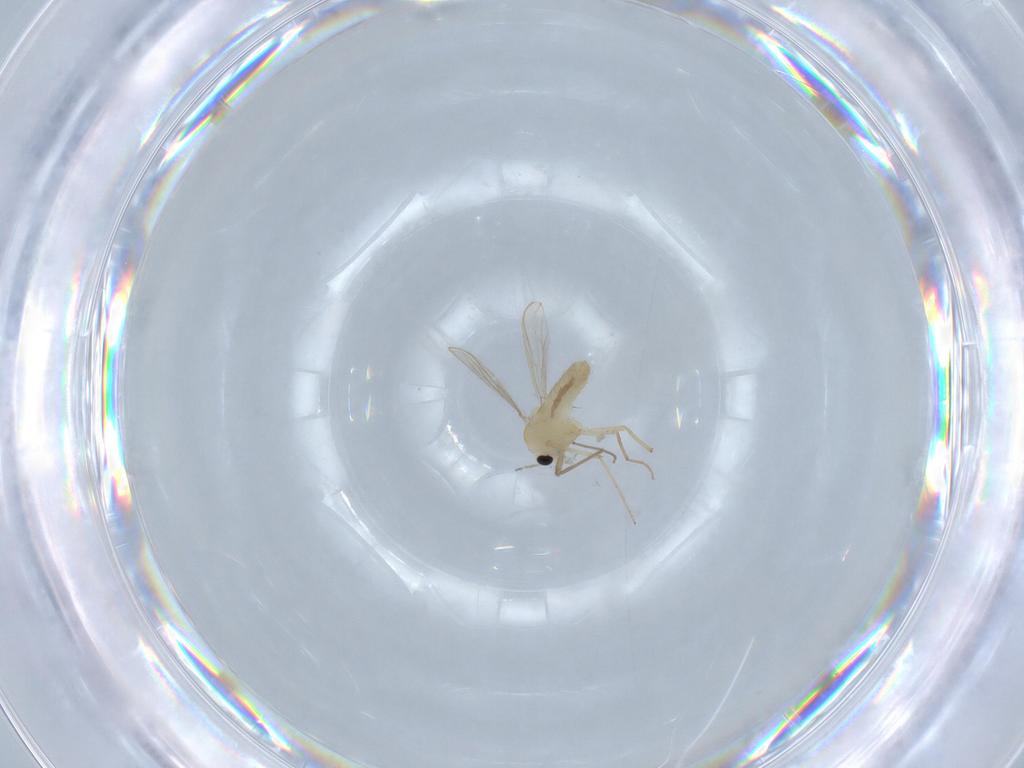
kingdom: Animalia
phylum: Arthropoda
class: Insecta
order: Diptera
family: Chironomidae
